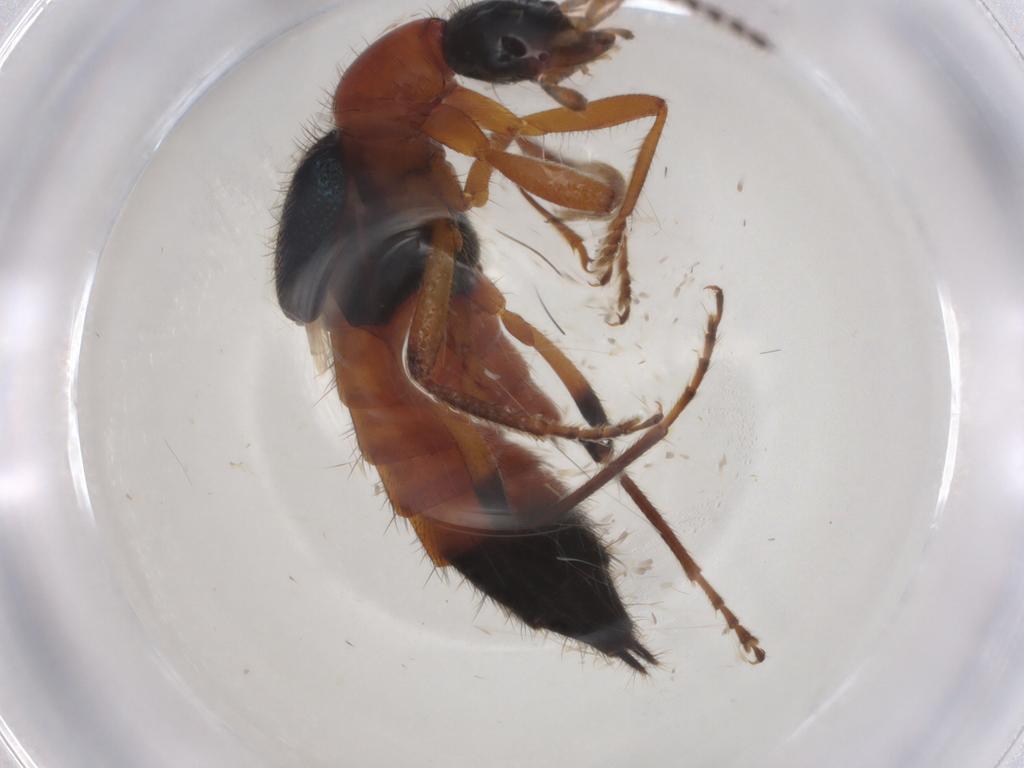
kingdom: Animalia
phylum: Arthropoda
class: Insecta
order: Coleoptera
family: Staphylinidae
